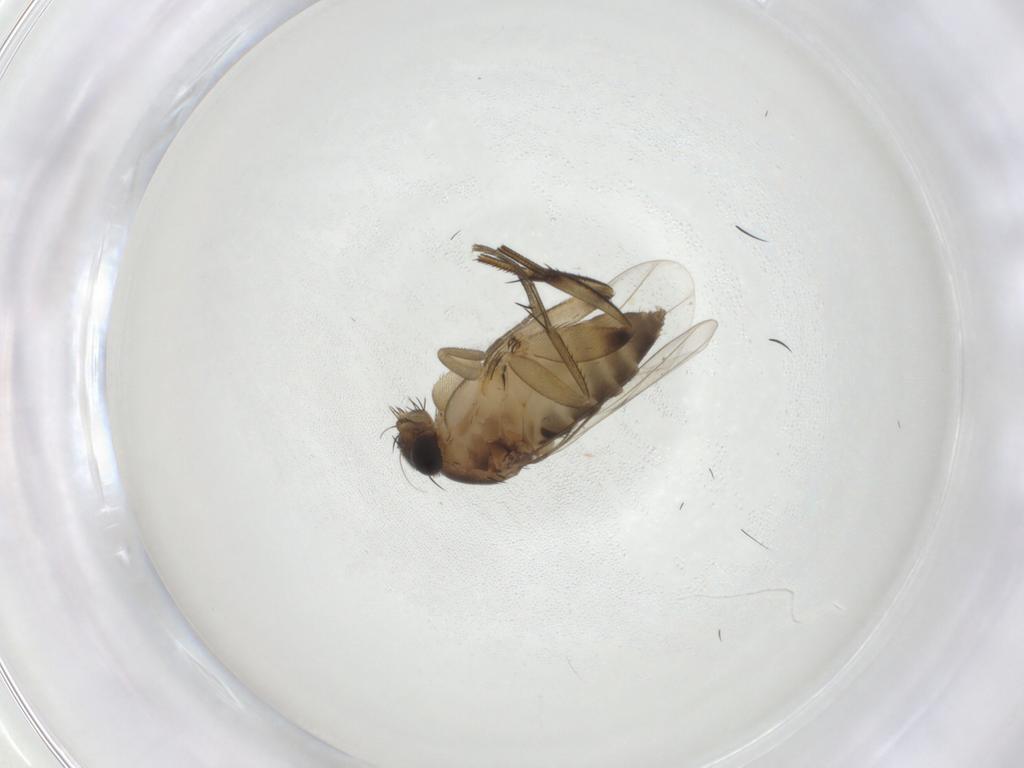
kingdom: Animalia
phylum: Arthropoda
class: Insecta
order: Diptera
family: Phoridae
